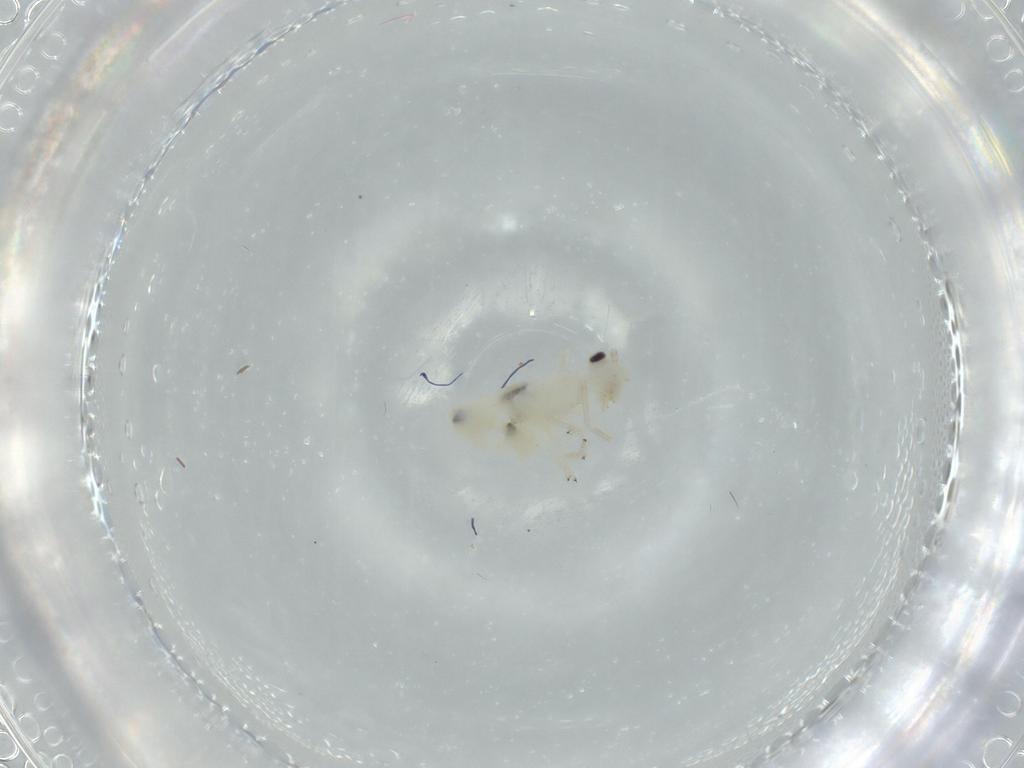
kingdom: Animalia
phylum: Arthropoda
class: Insecta
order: Psocodea
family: Caeciliusidae
